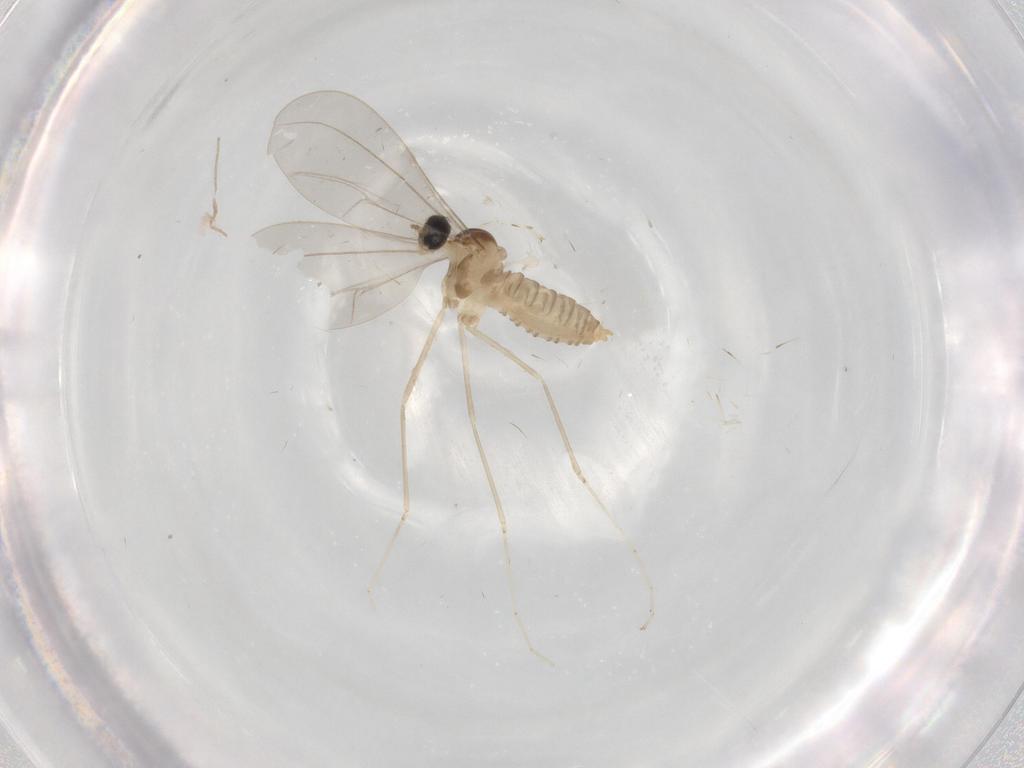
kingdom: Animalia
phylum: Arthropoda
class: Insecta
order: Diptera
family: Cecidomyiidae
